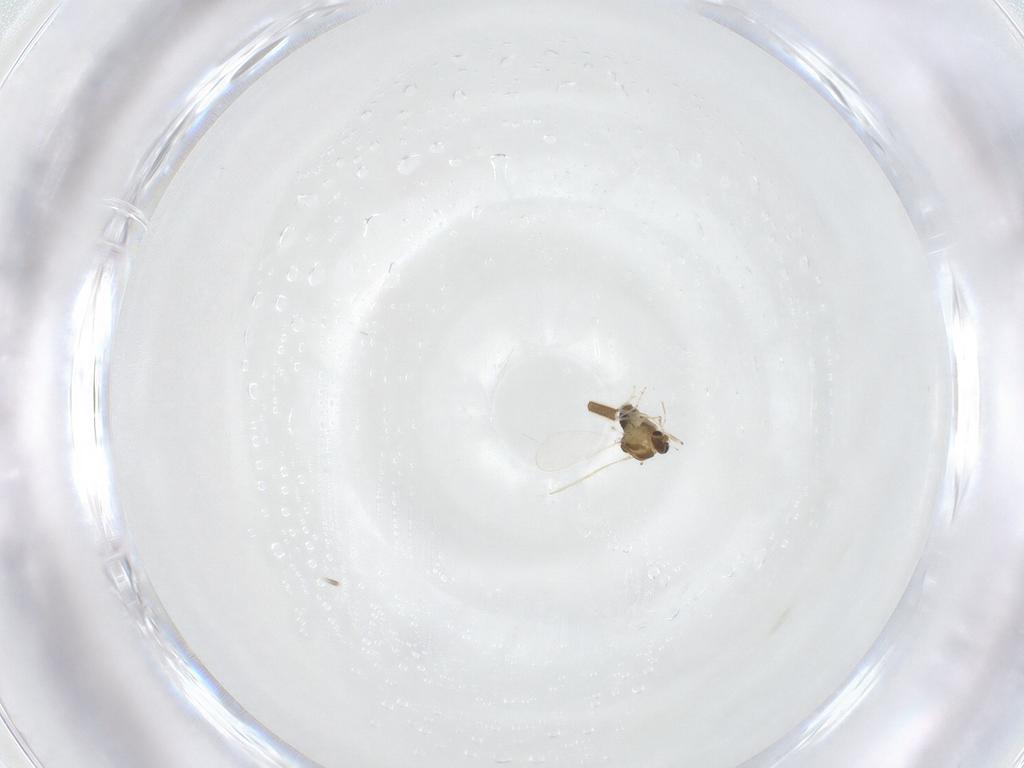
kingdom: Animalia
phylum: Arthropoda
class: Insecta
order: Diptera
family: Chironomidae
